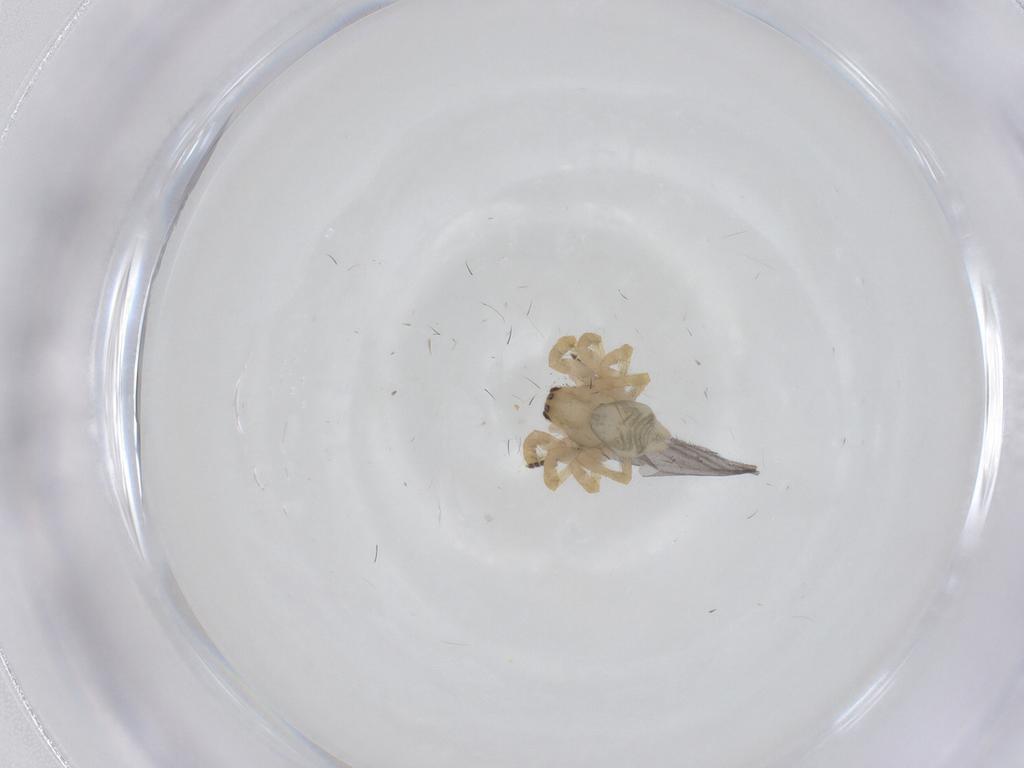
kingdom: Animalia
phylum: Arthropoda
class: Arachnida
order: Araneae
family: Desidae
